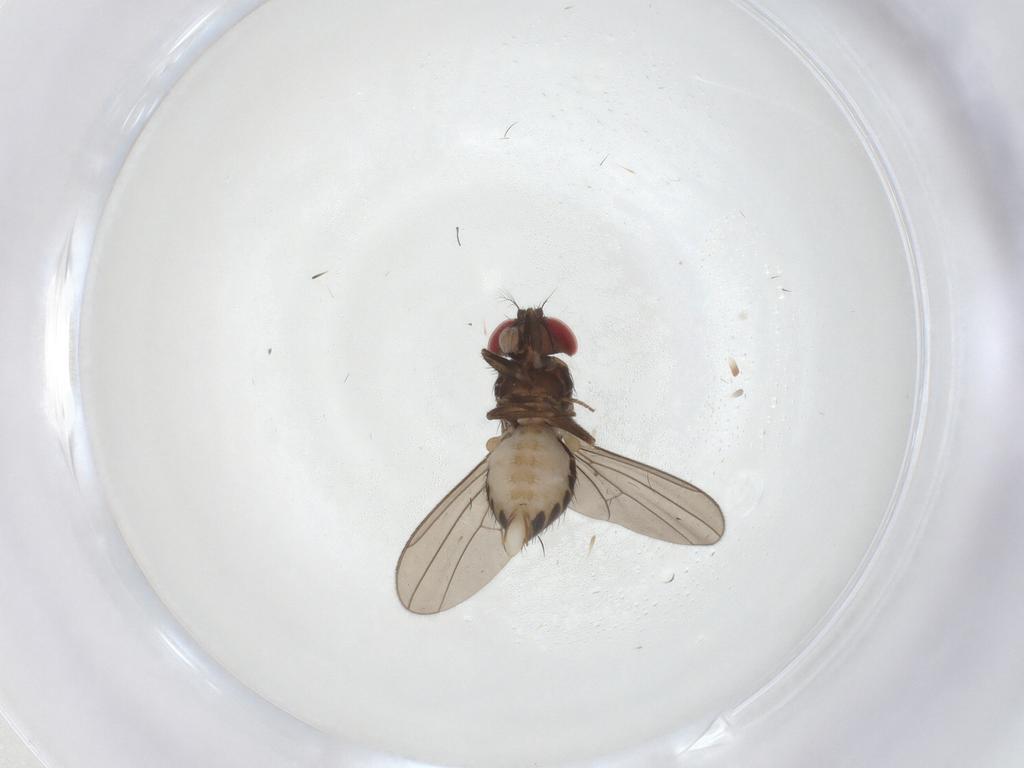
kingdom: Animalia
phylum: Arthropoda
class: Insecta
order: Diptera
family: Drosophilidae
